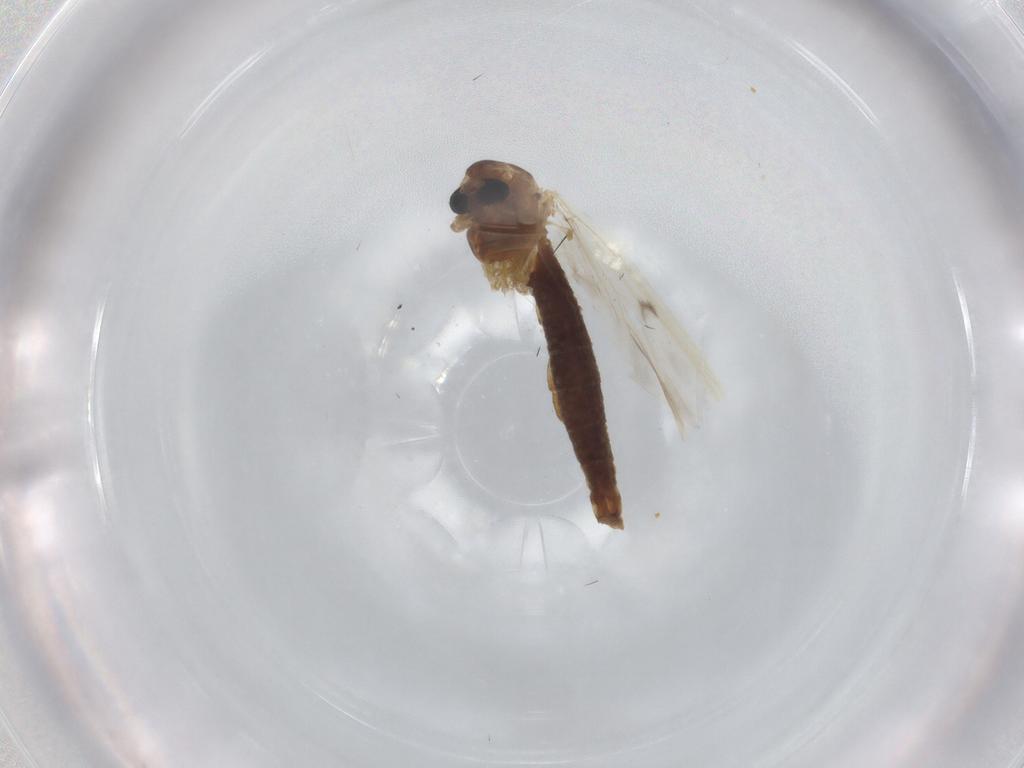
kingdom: Animalia
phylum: Arthropoda
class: Insecta
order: Diptera
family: Chironomidae
